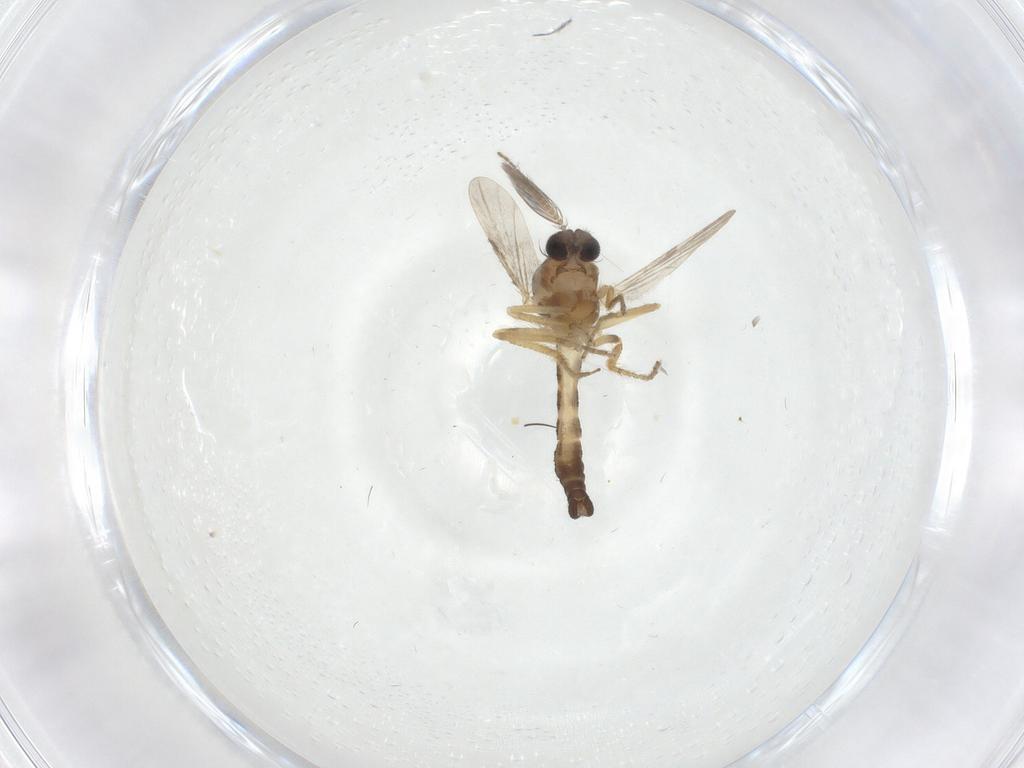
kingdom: Animalia
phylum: Arthropoda
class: Insecta
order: Diptera
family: Ceratopogonidae
